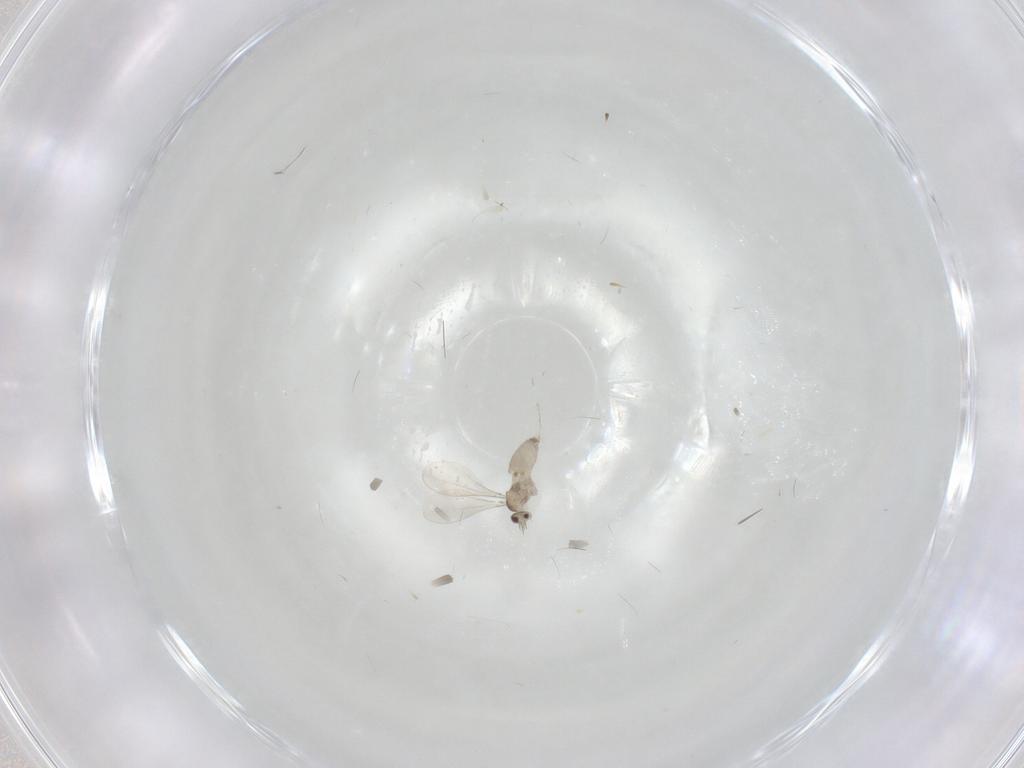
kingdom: Animalia
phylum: Arthropoda
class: Insecta
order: Diptera
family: Cecidomyiidae
